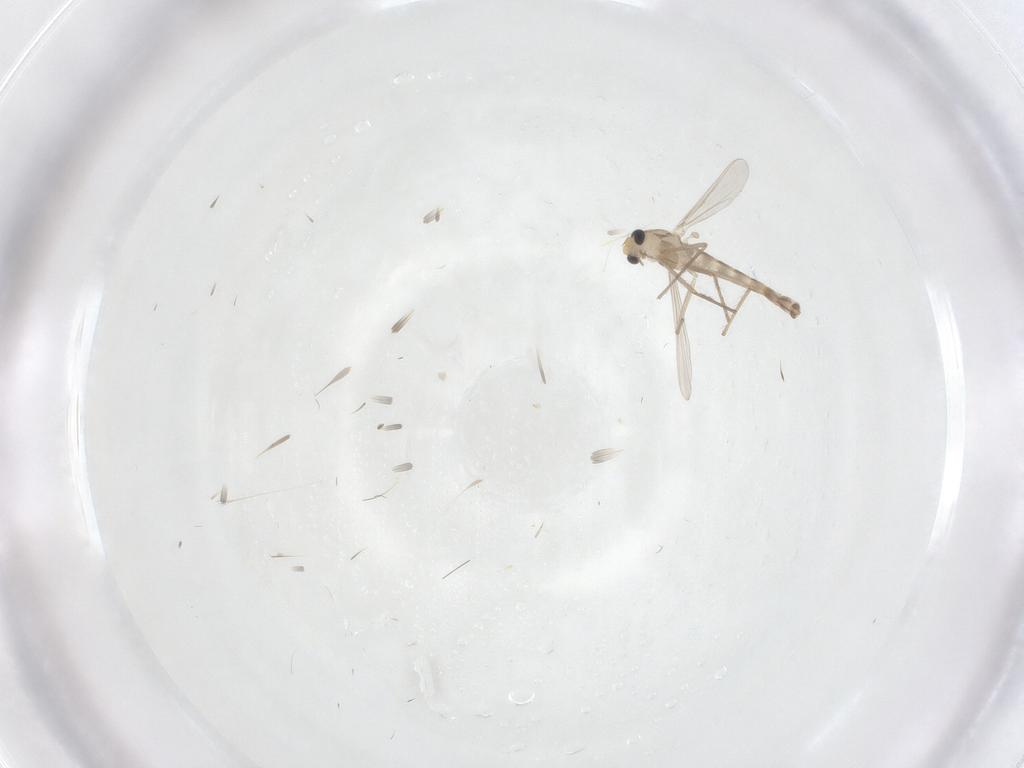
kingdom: Animalia
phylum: Arthropoda
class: Insecta
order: Diptera
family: Chironomidae
